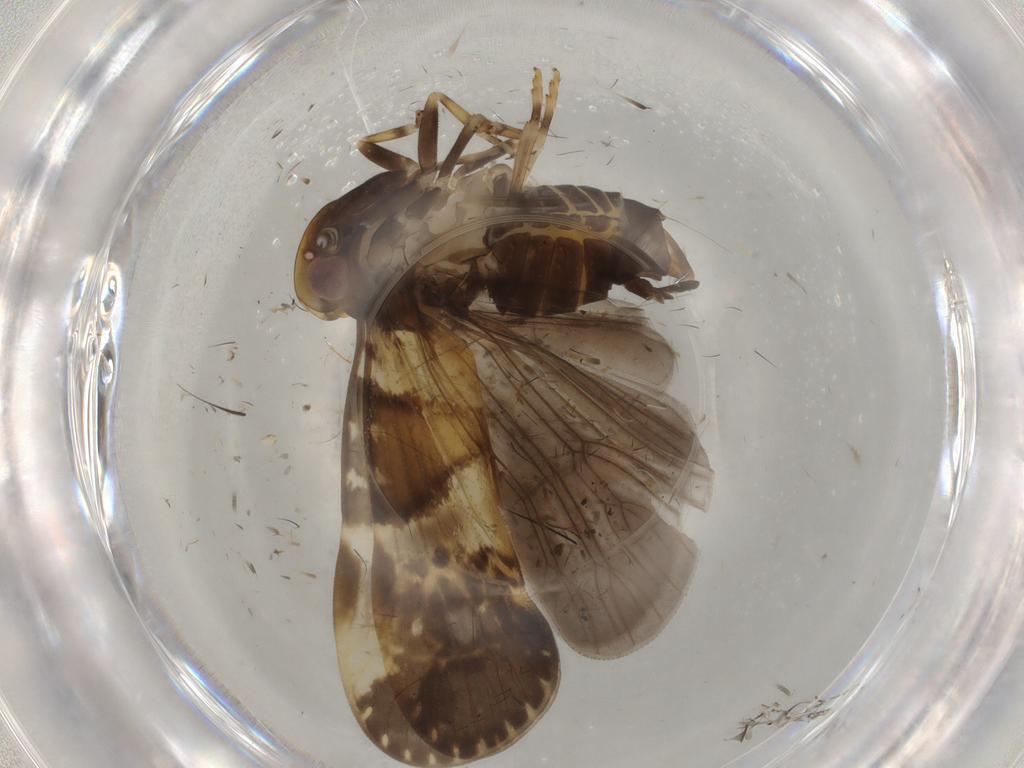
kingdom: Animalia
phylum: Arthropoda
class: Insecta
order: Hemiptera
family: Cixiidae
